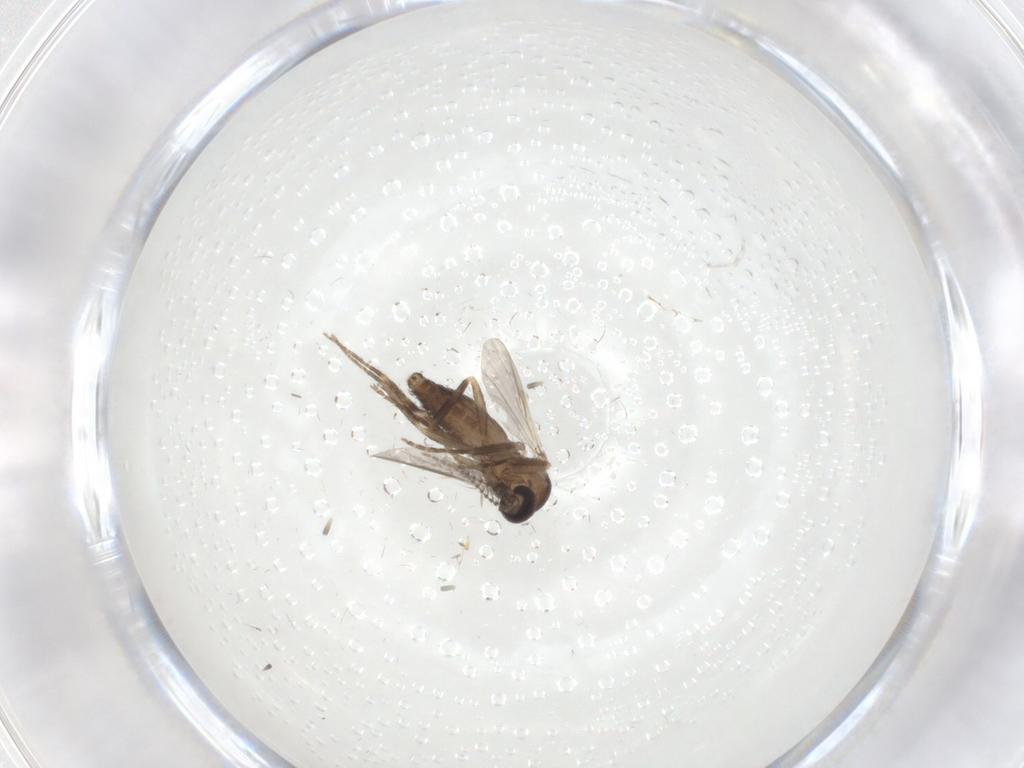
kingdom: Animalia
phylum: Arthropoda
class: Insecta
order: Diptera
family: Ceratopogonidae
